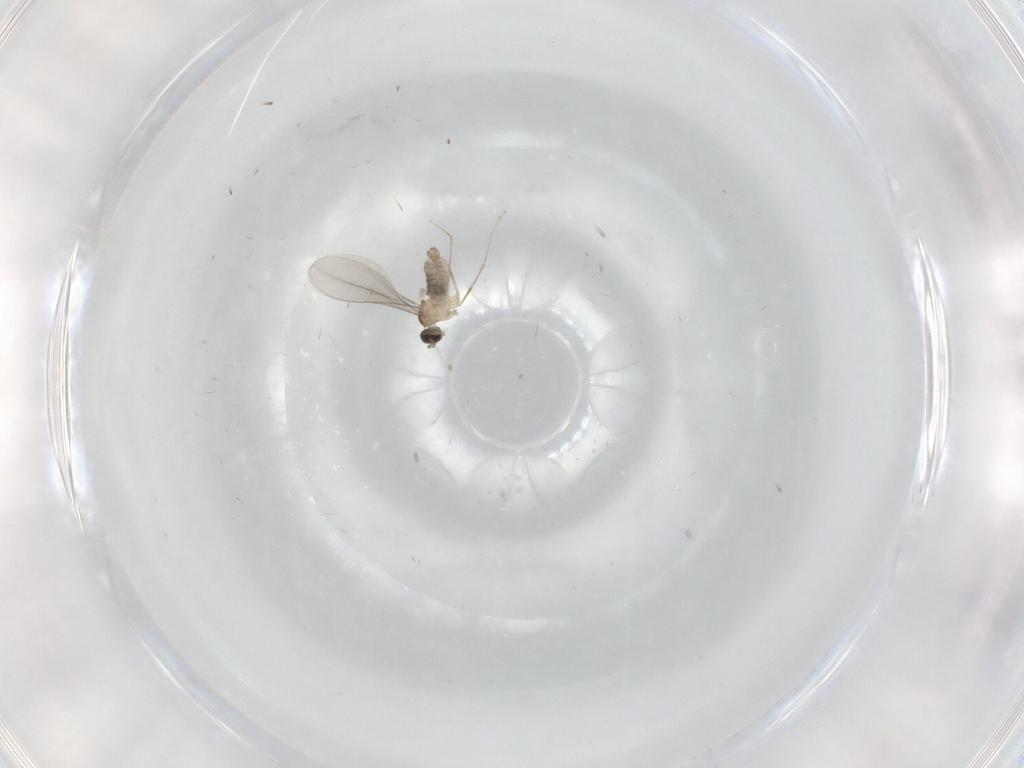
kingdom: Animalia
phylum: Arthropoda
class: Insecta
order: Diptera
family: Cecidomyiidae
